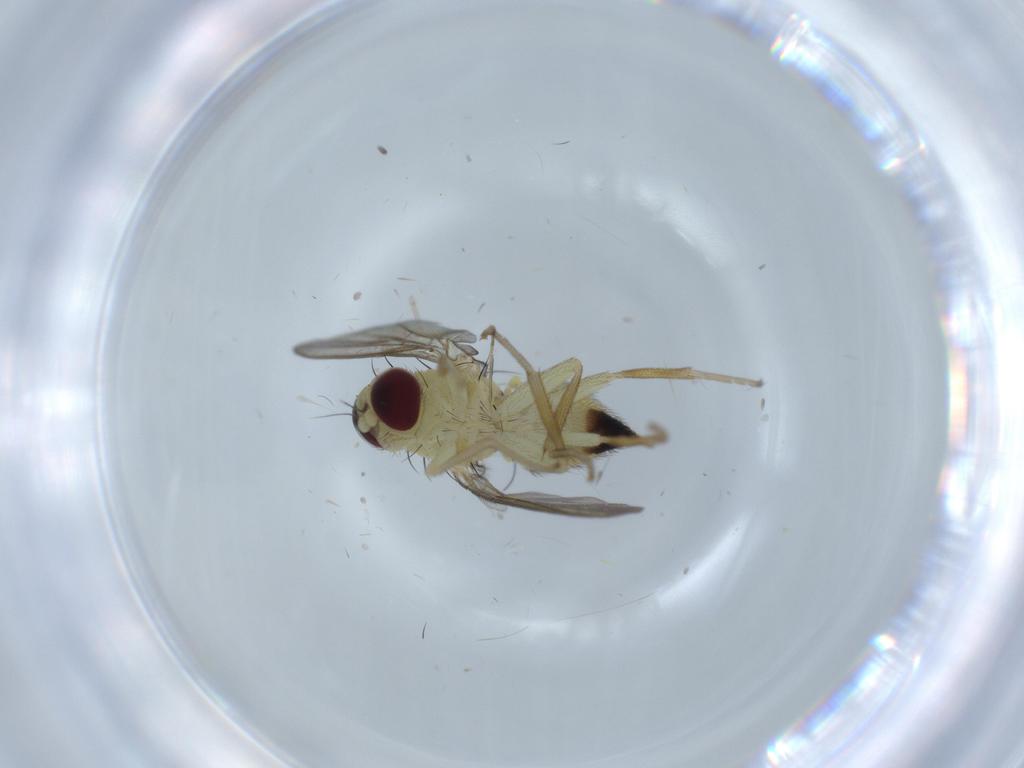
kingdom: Animalia
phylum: Arthropoda
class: Insecta
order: Diptera
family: Agromyzidae
